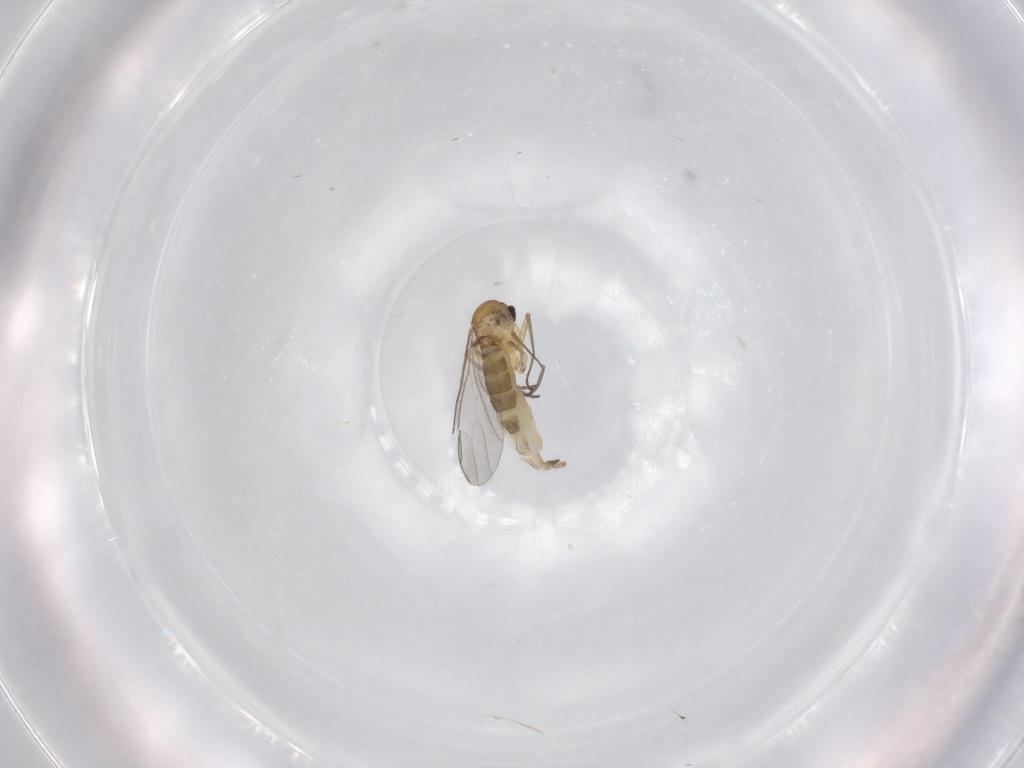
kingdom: Animalia
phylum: Arthropoda
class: Insecta
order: Diptera
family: Sciaridae
